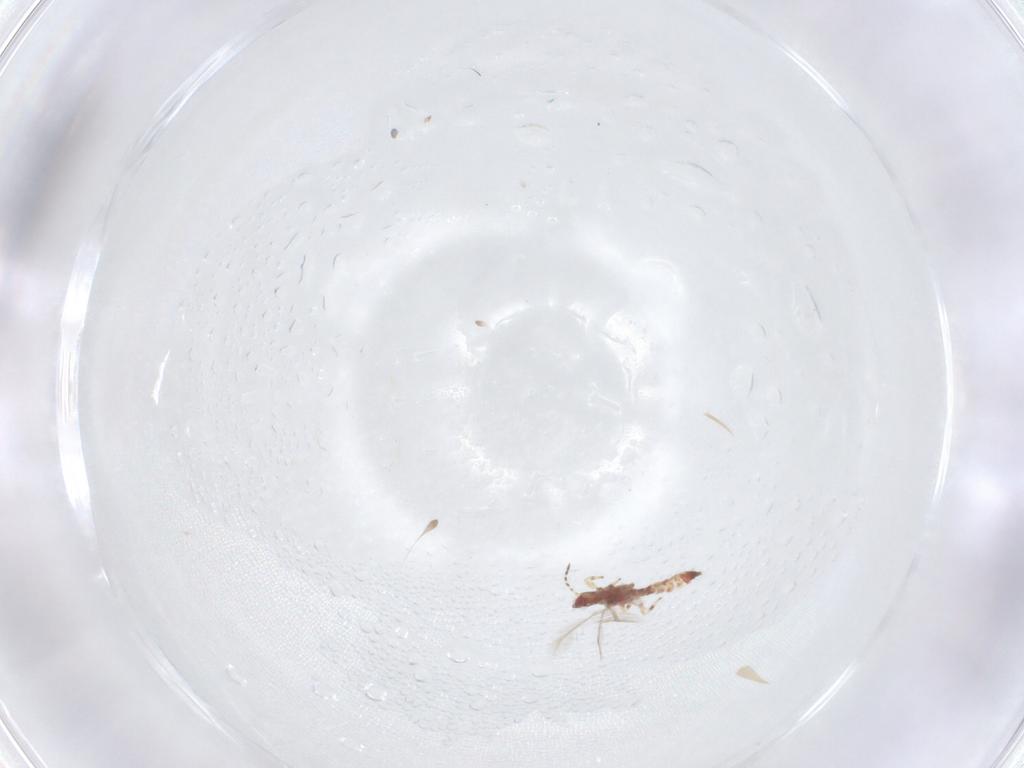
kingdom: Animalia
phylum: Arthropoda
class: Insecta
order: Thysanoptera
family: Phlaeothripidae
